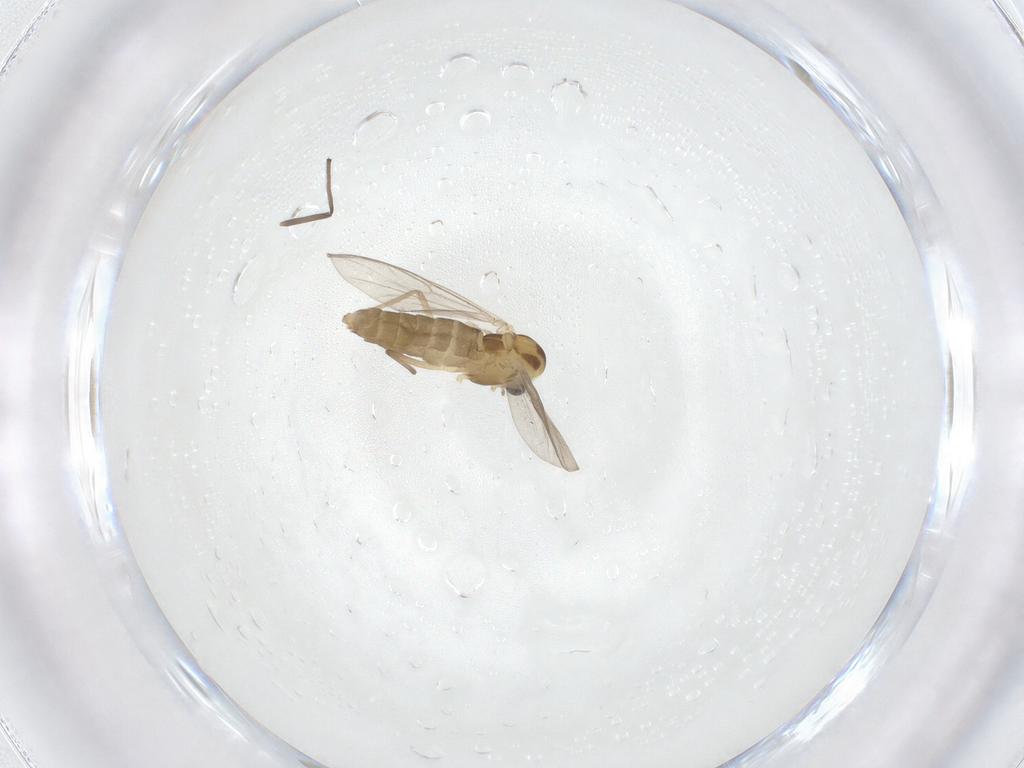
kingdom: Animalia
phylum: Arthropoda
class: Insecta
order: Diptera
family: Chironomidae
